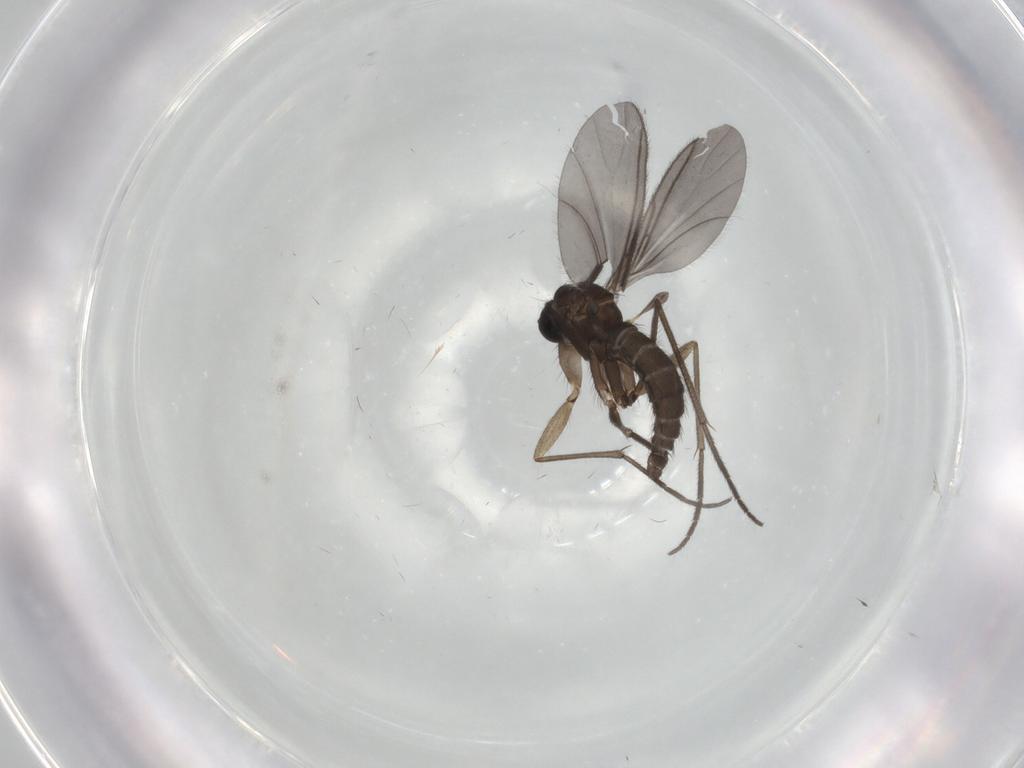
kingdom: Animalia
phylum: Arthropoda
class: Insecta
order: Diptera
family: Sciaridae
